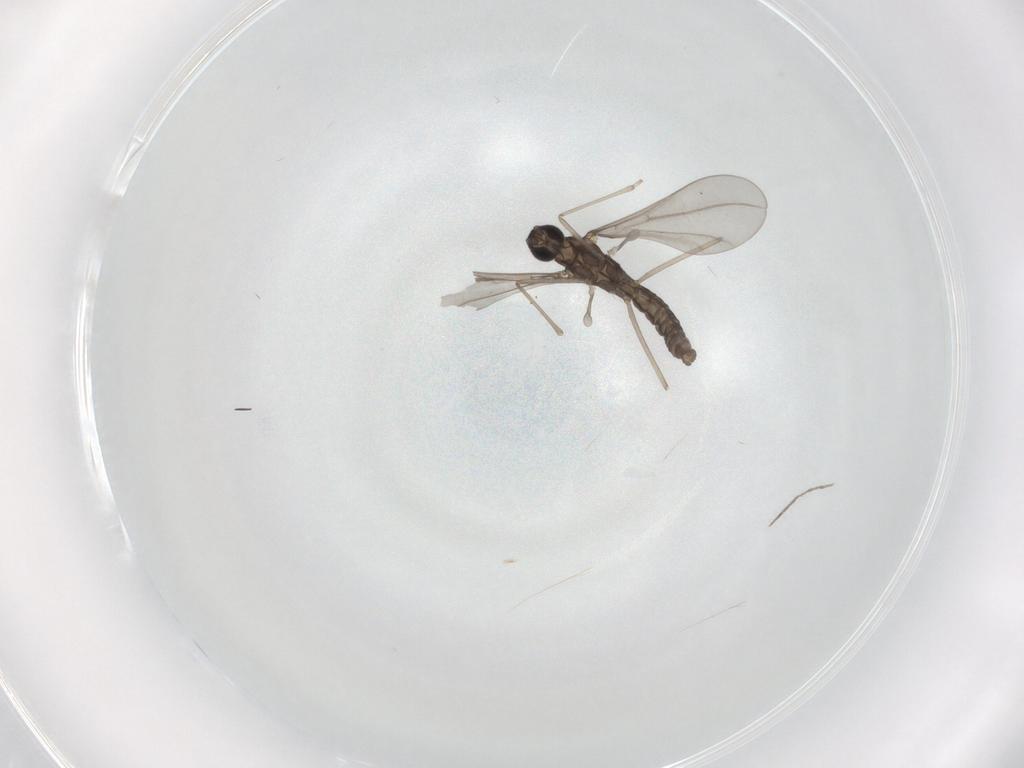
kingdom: Animalia
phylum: Arthropoda
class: Insecta
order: Diptera
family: Cecidomyiidae
